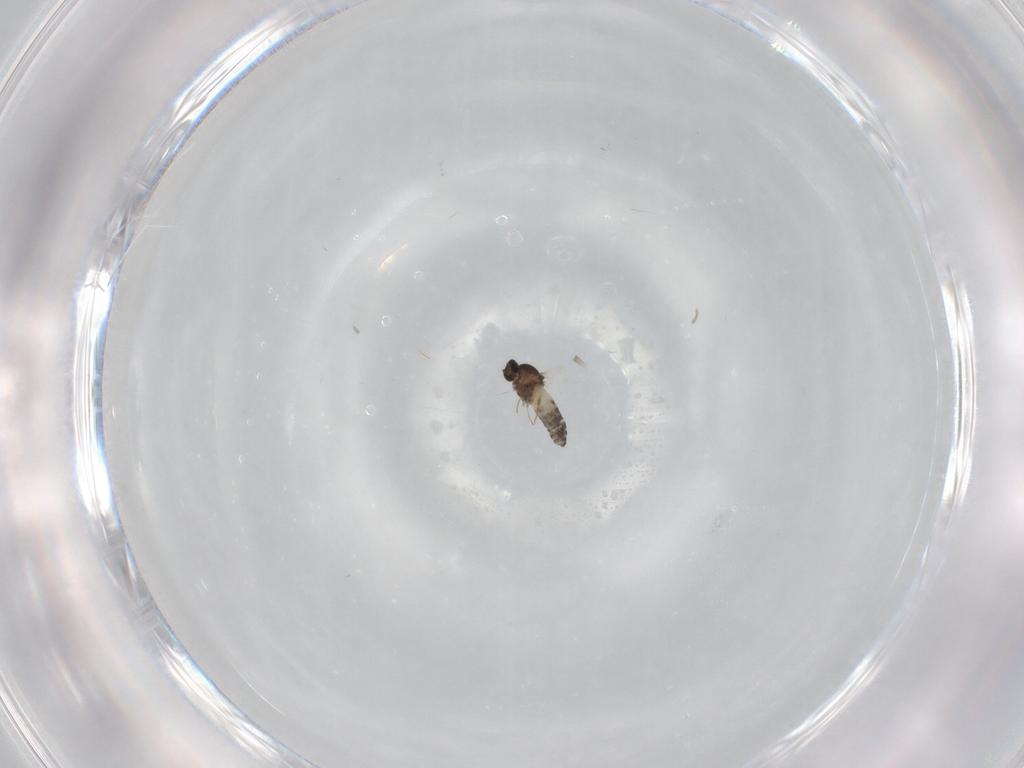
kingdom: Animalia
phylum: Arthropoda
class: Insecta
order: Diptera
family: Cecidomyiidae
